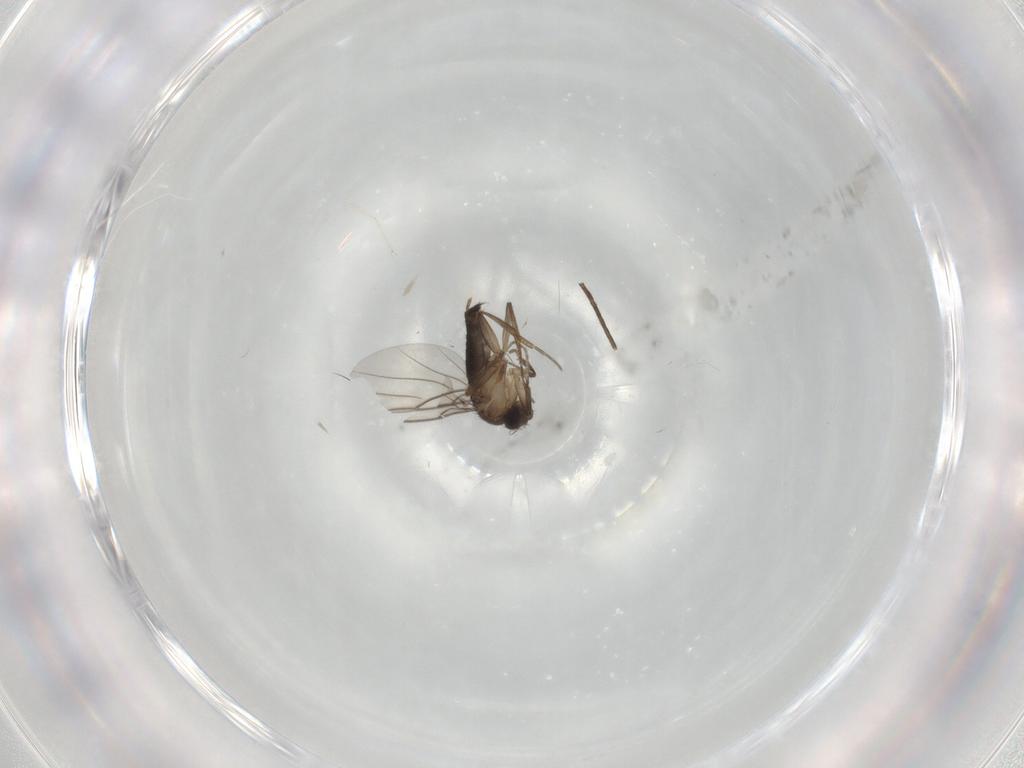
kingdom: Animalia
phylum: Arthropoda
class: Insecta
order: Diptera
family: Phoridae
